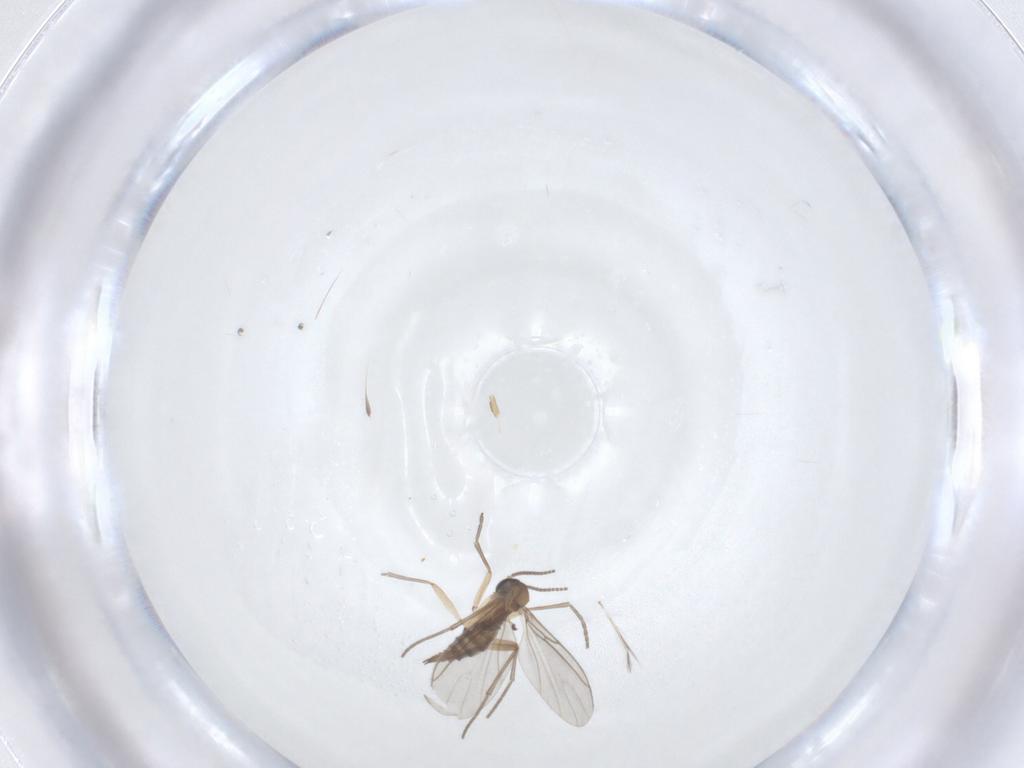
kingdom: Animalia
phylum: Arthropoda
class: Insecta
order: Diptera
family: Sciaridae
